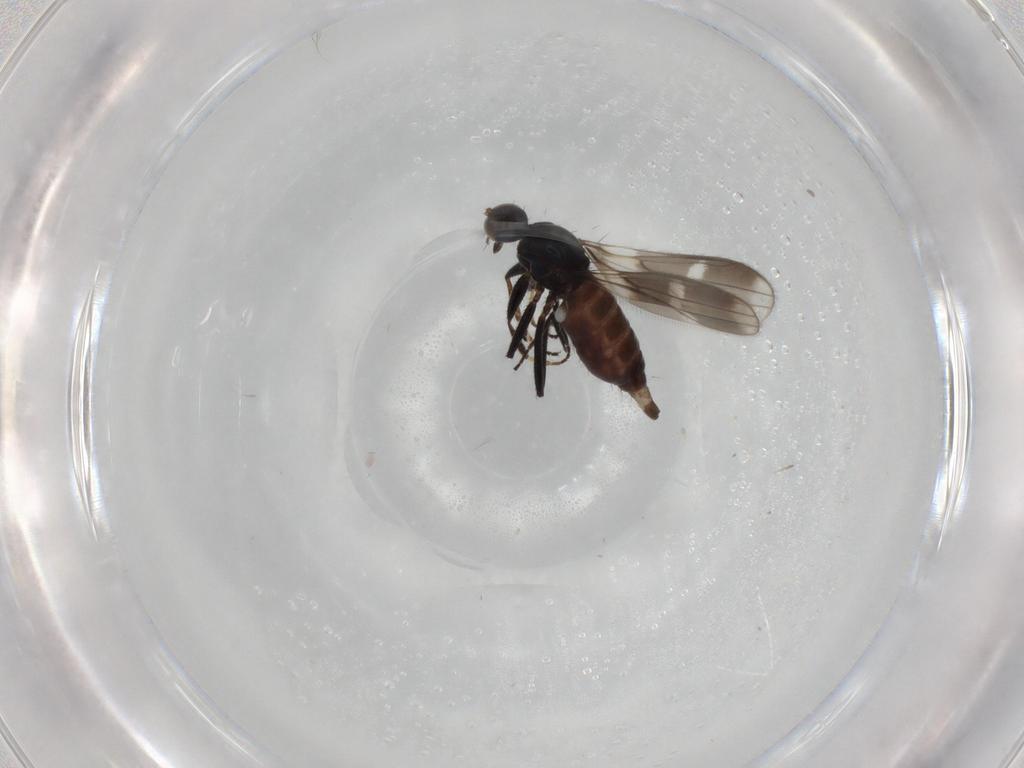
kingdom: Animalia
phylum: Arthropoda
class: Insecta
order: Diptera
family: Hybotidae
